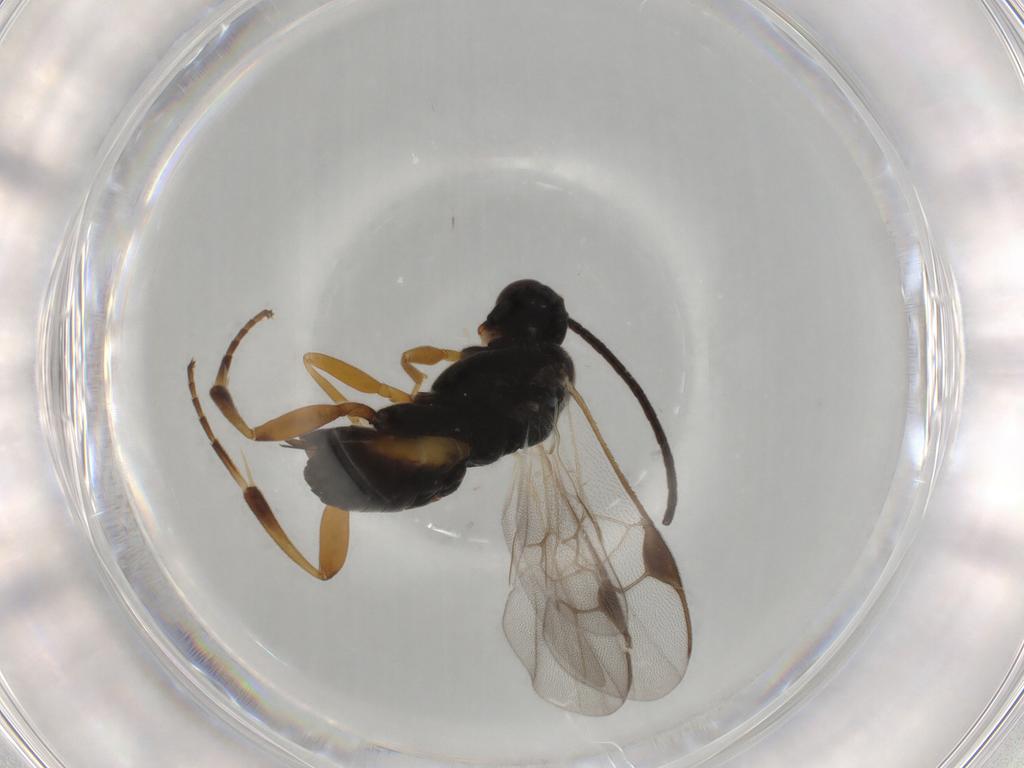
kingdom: Animalia
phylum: Arthropoda
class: Insecta
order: Hymenoptera
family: Braconidae
